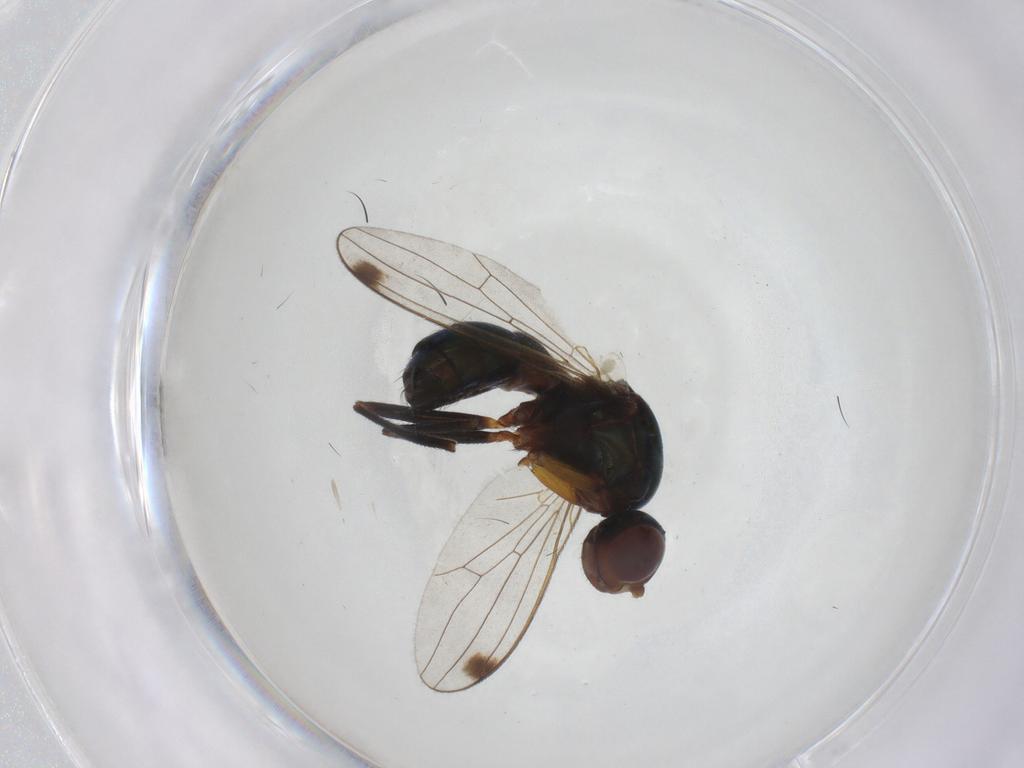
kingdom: Animalia
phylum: Arthropoda
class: Insecta
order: Diptera
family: Sepsidae
